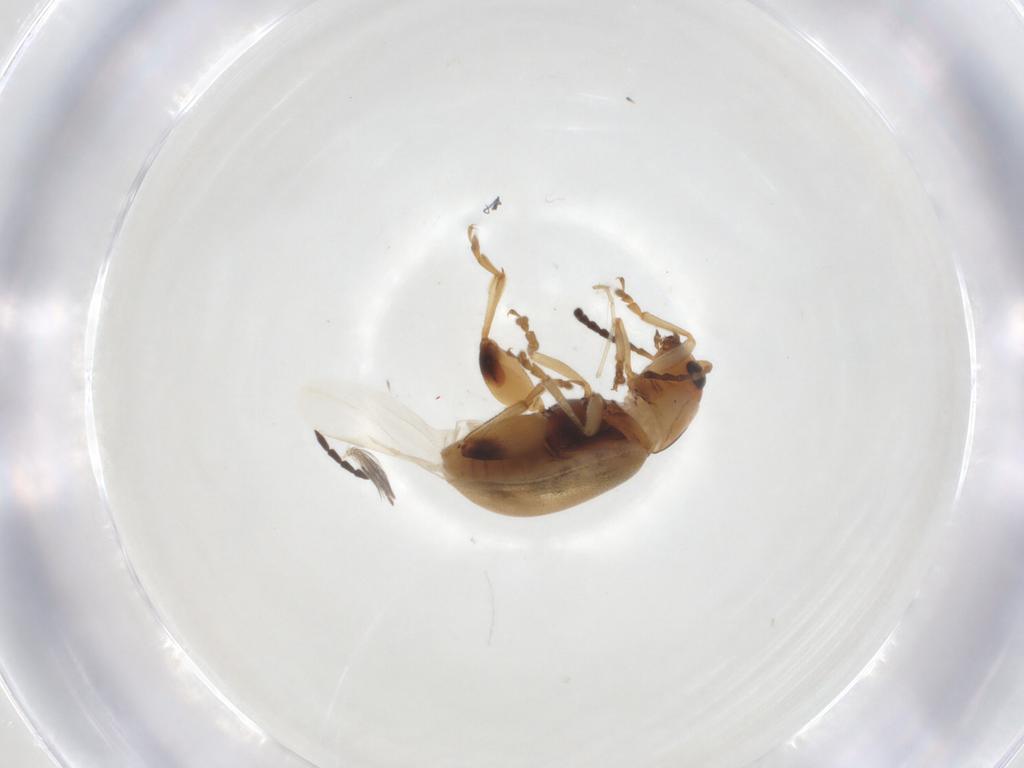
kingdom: Animalia
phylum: Arthropoda
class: Insecta
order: Coleoptera
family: Chrysomelidae
